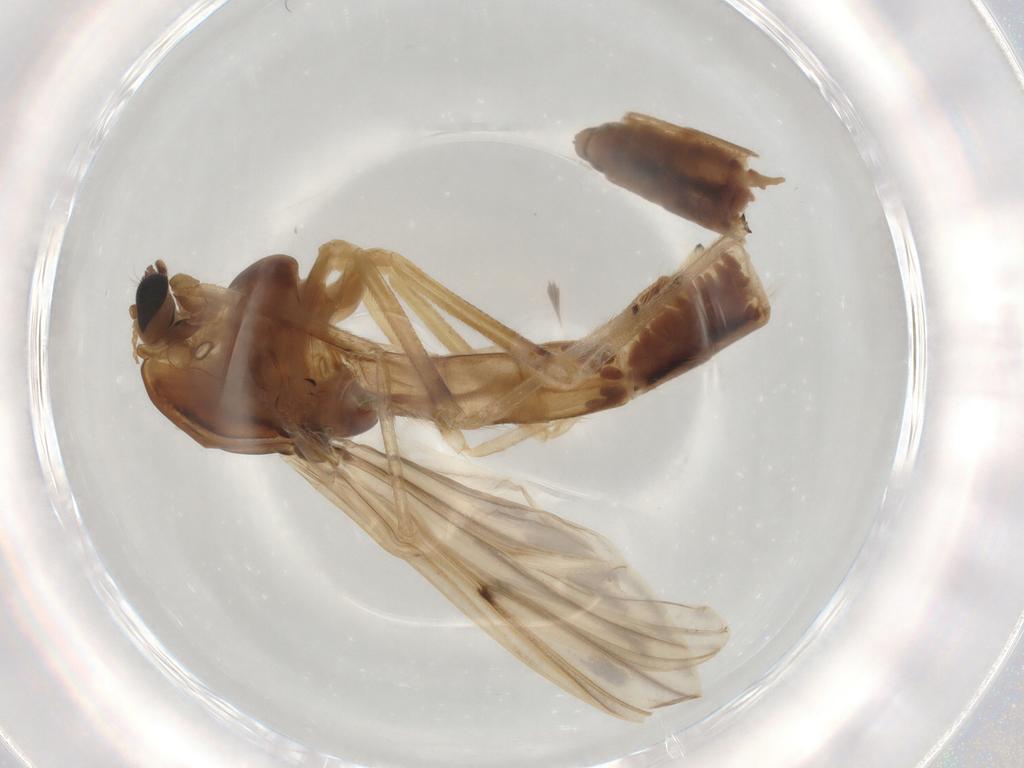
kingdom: Animalia
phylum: Arthropoda
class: Insecta
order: Diptera
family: Chironomidae
